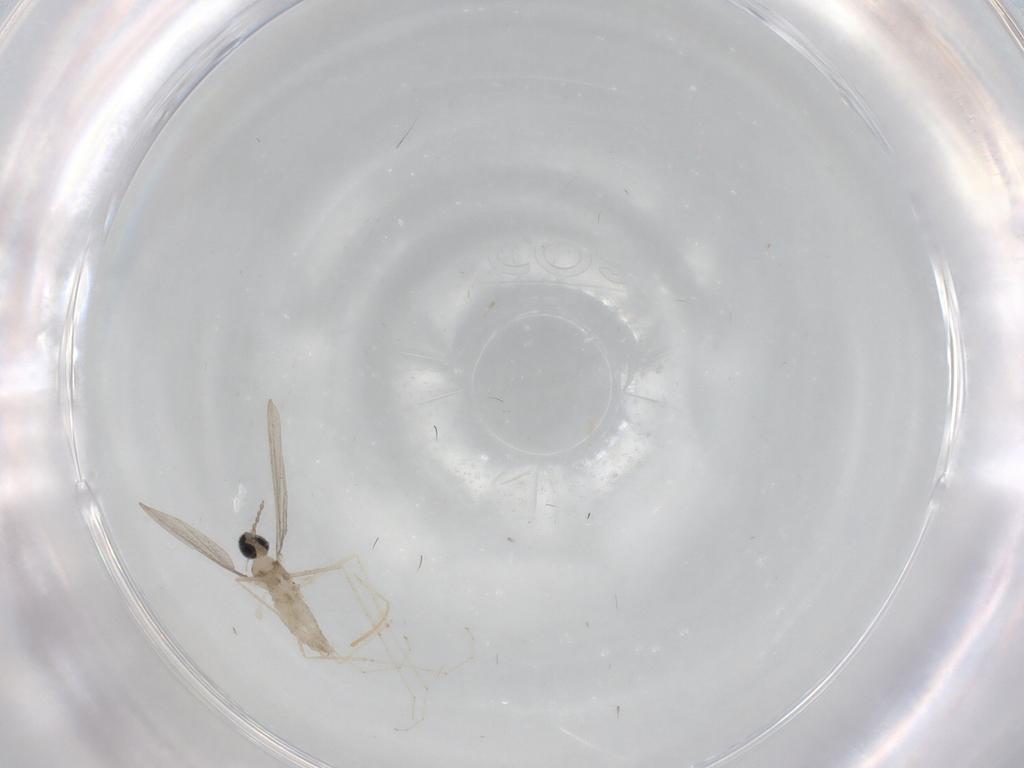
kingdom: Animalia
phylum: Arthropoda
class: Insecta
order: Diptera
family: Cecidomyiidae
